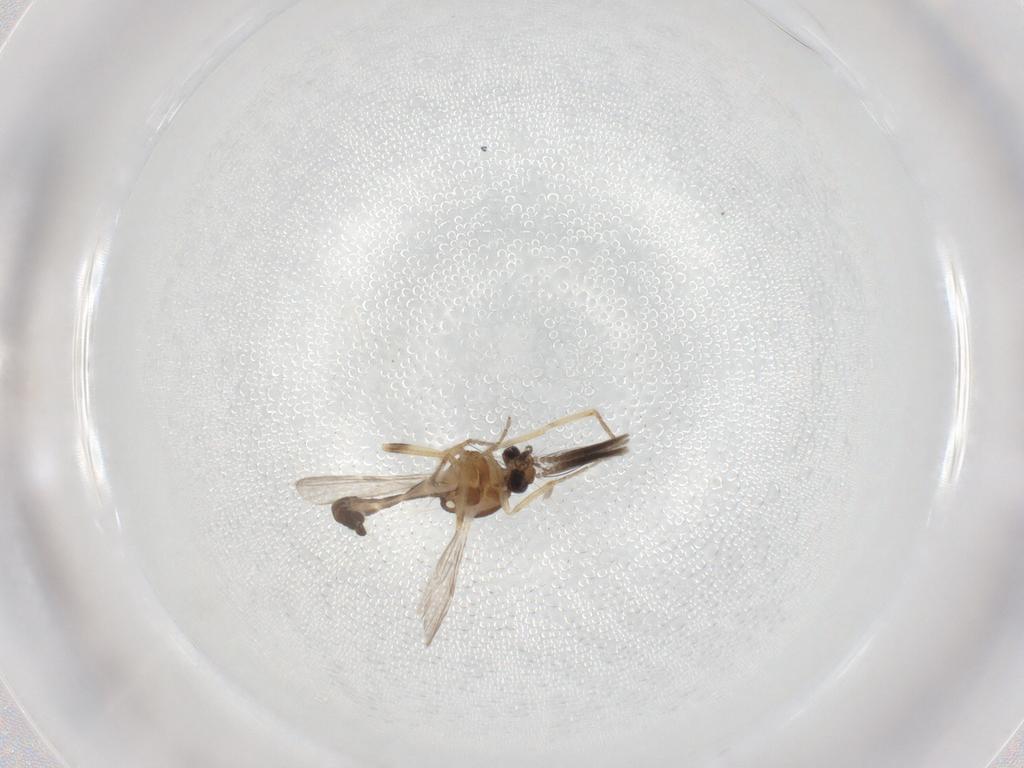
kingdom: Animalia
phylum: Arthropoda
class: Insecta
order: Diptera
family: Ceratopogonidae
